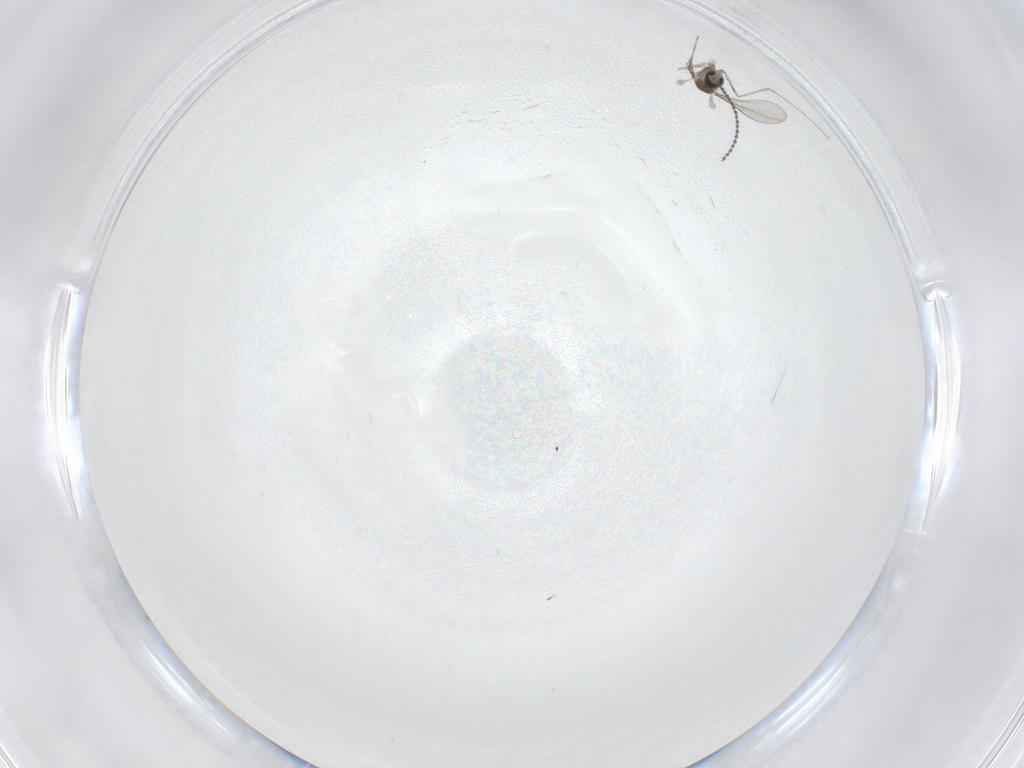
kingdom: Animalia
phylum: Arthropoda
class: Insecta
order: Diptera
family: Cecidomyiidae
